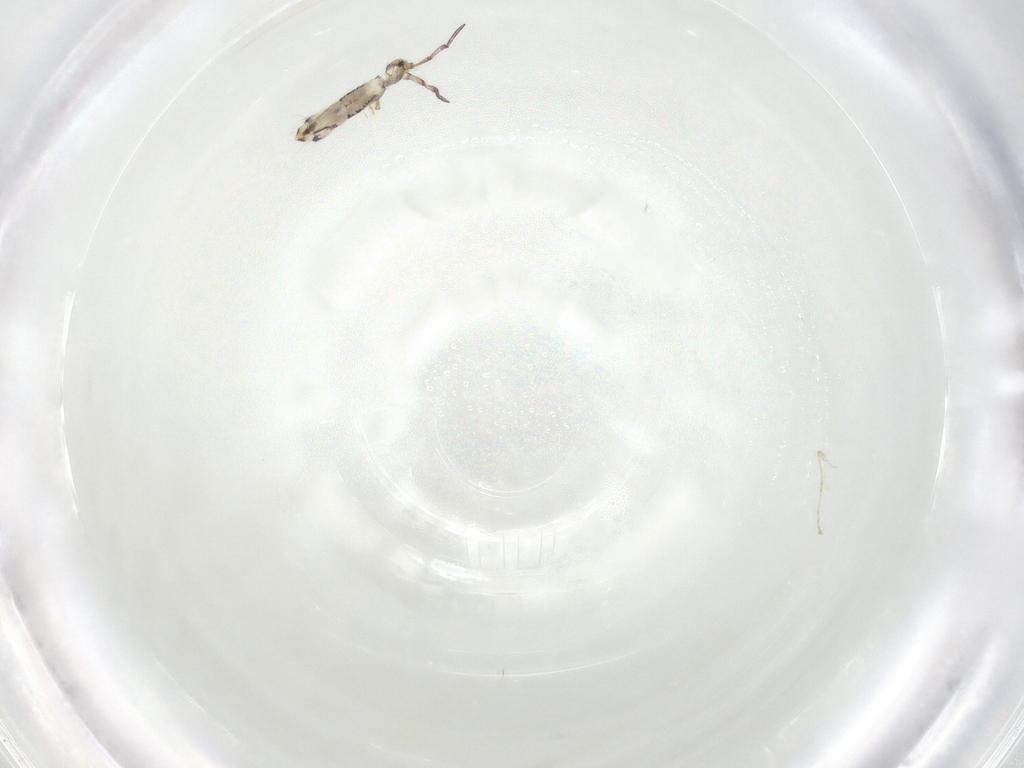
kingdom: Animalia
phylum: Arthropoda
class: Collembola
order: Entomobryomorpha
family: Entomobryidae
